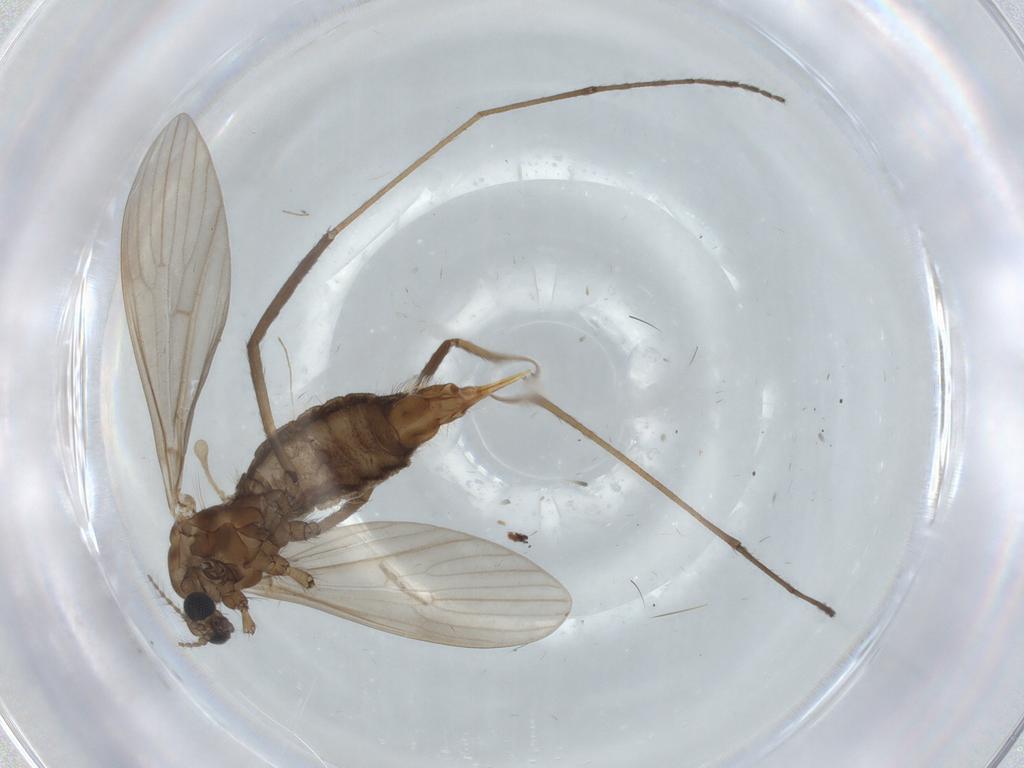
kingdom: Animalia
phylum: Arthropoda
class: Insecta
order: Diptera
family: Limoniidae
